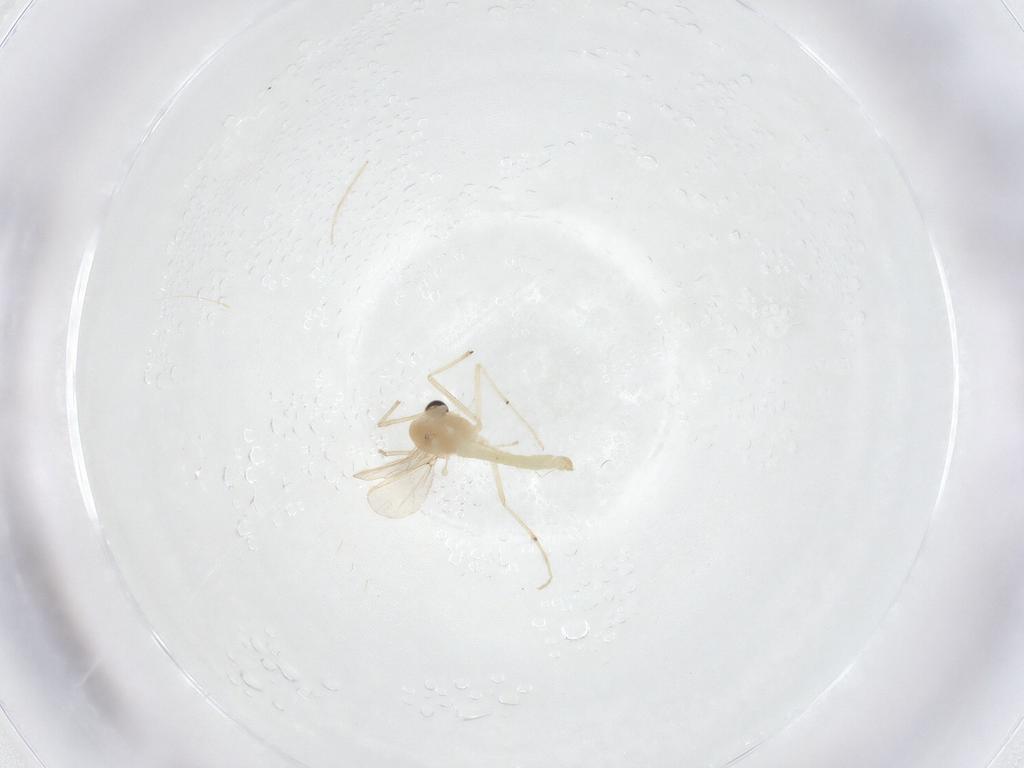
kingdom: Animalia
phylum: Arthropoda
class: Insecta
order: Diptera
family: Chironomidae
